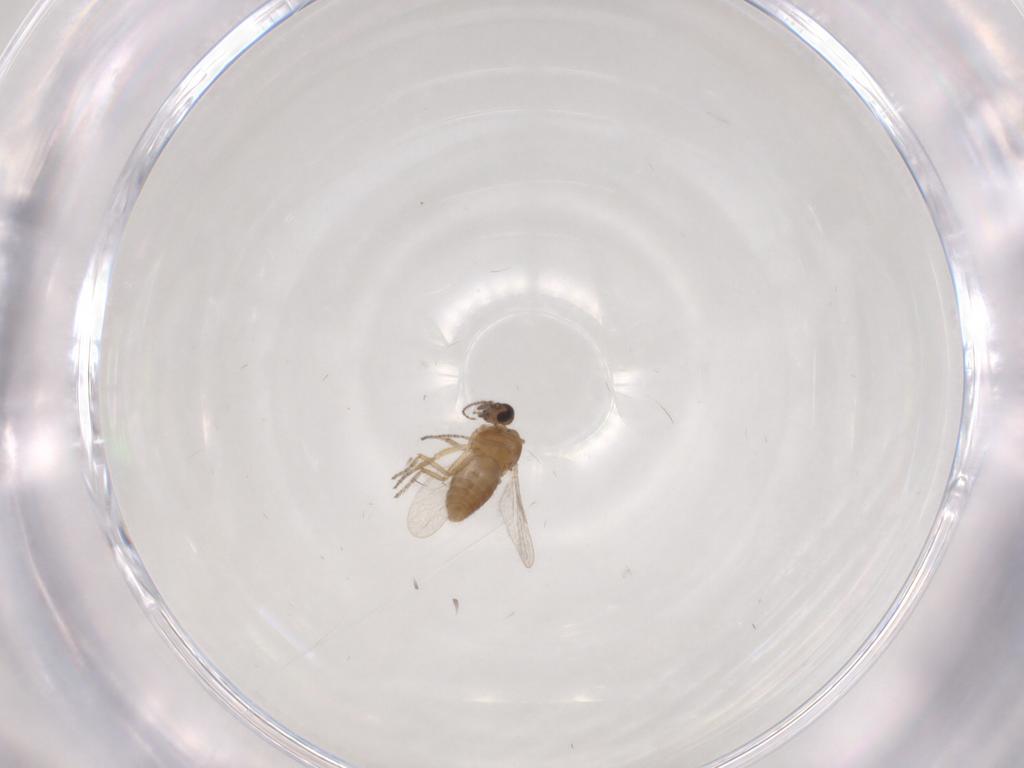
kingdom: Animalia
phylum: Arthropoda
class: Insecta
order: Diptera
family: Ceratopogonidae
